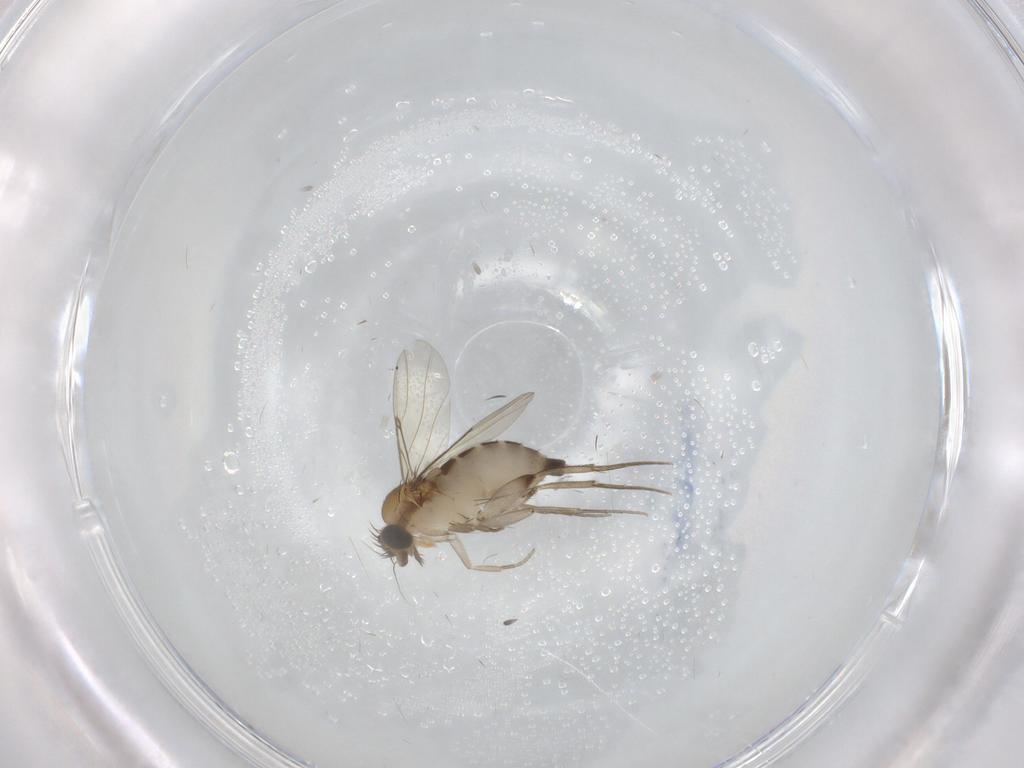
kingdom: Animalia
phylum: Arthropoda
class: Insecta
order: Diptera
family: Phoridae
